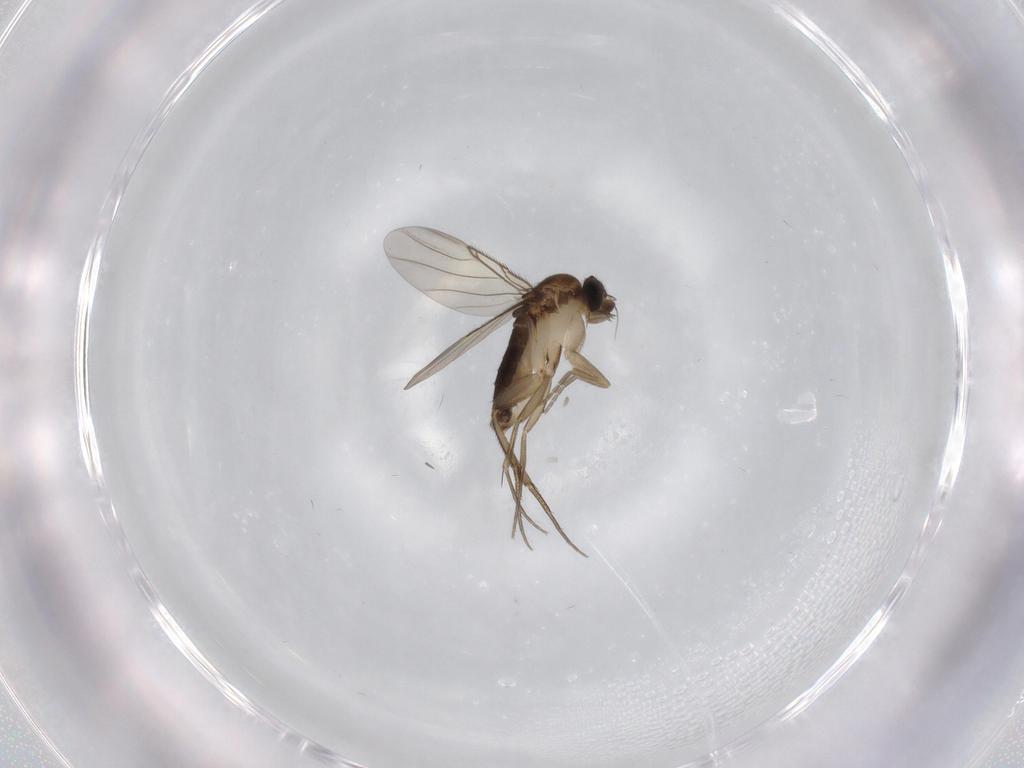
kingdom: Animalia
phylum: Arthropoda
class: Insecta
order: Diptera
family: Phoridae
